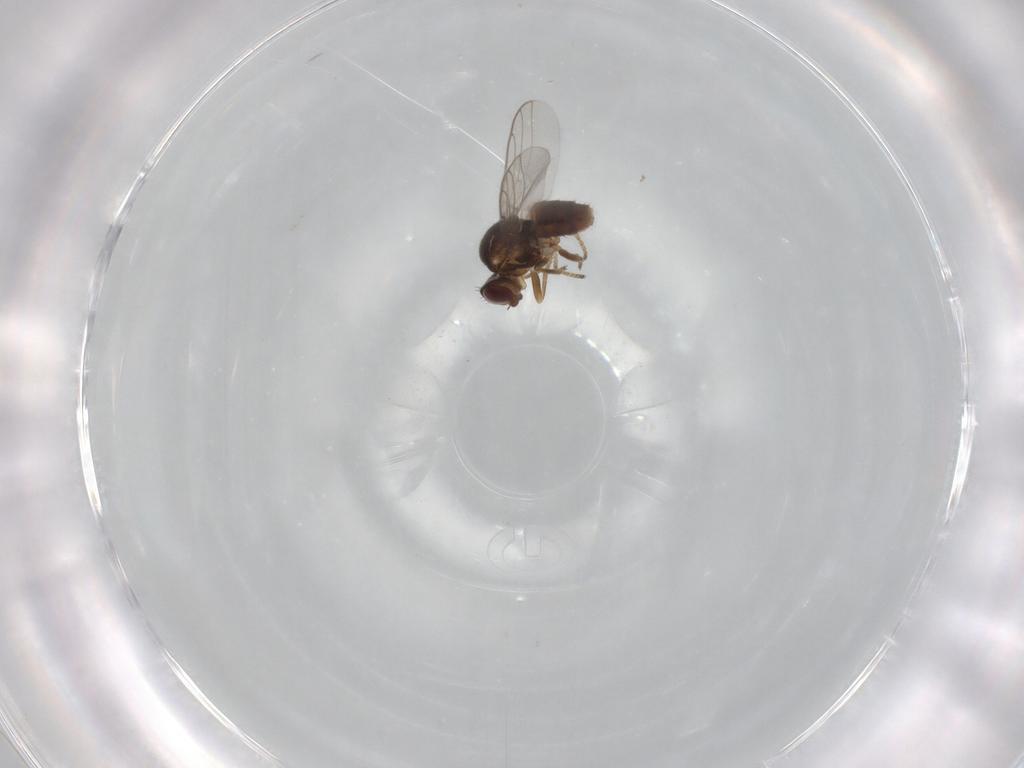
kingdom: Animalia
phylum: Arthropoda
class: Insecta
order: Diptera
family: Chloropidae
